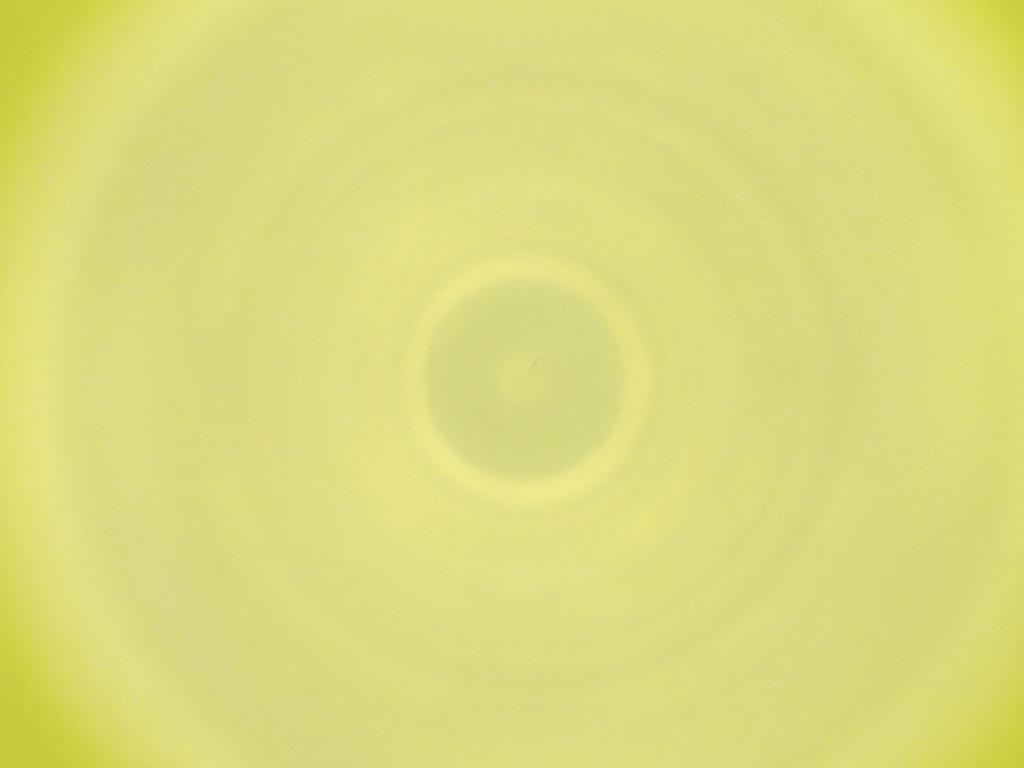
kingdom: Animalia
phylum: Arthropoda
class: Insecta
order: Diptera
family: Cecidomyiidae
